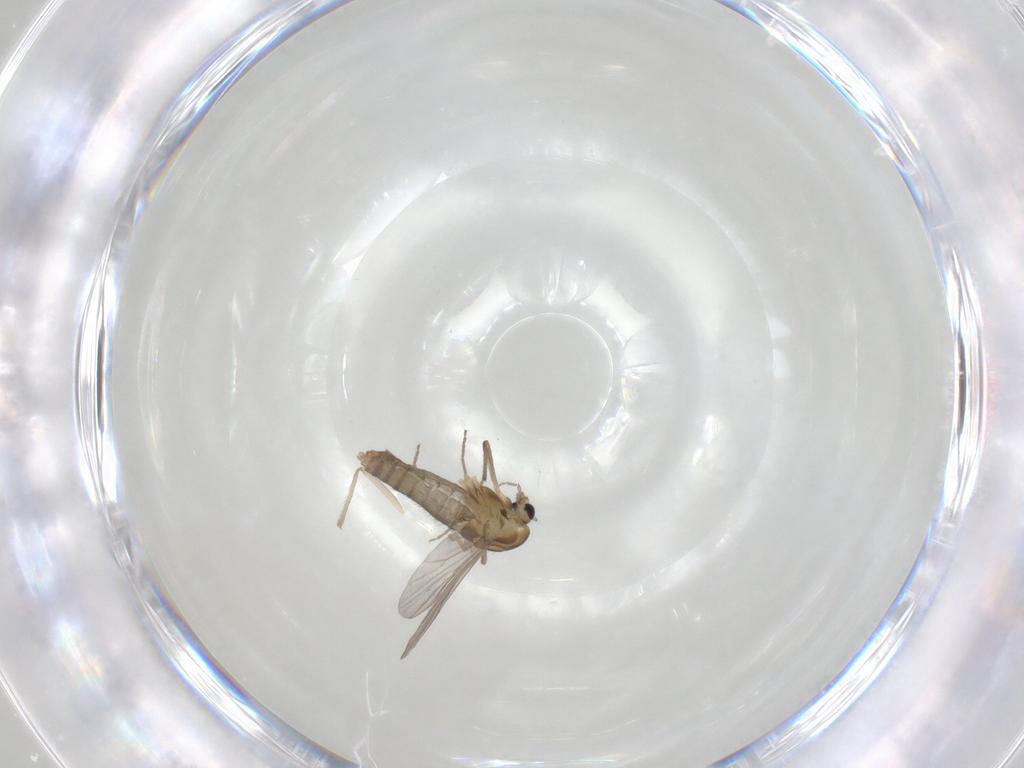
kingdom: Animalia
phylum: Arthropoda
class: Insecta
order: Diptera
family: Chironomidae
